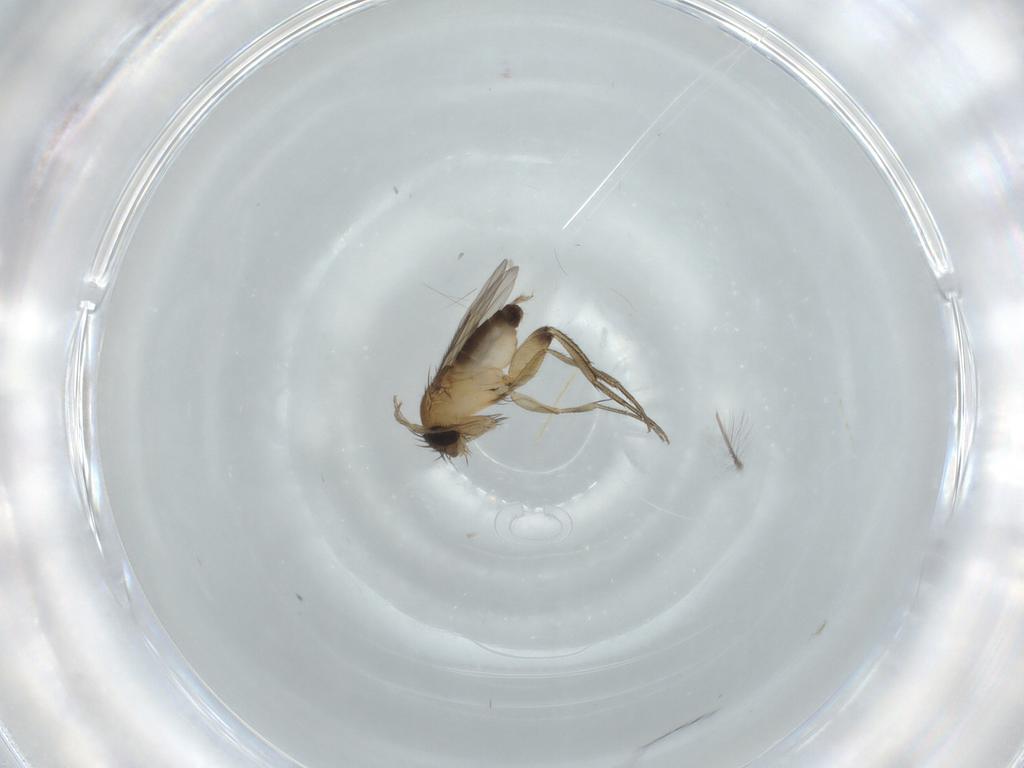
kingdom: Animalia
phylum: Arthropoda
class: Insecta
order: Diptera
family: Phoridae
